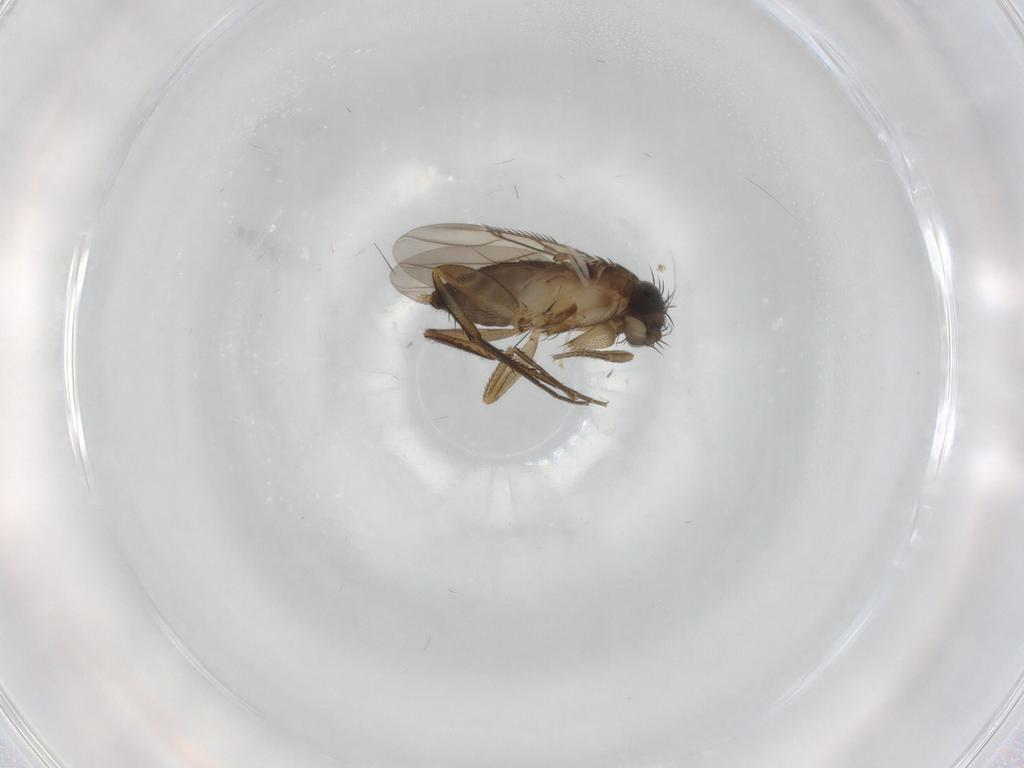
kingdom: Animalia
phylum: Arthropoda
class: Insecta
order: Diptera
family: Phoridae
